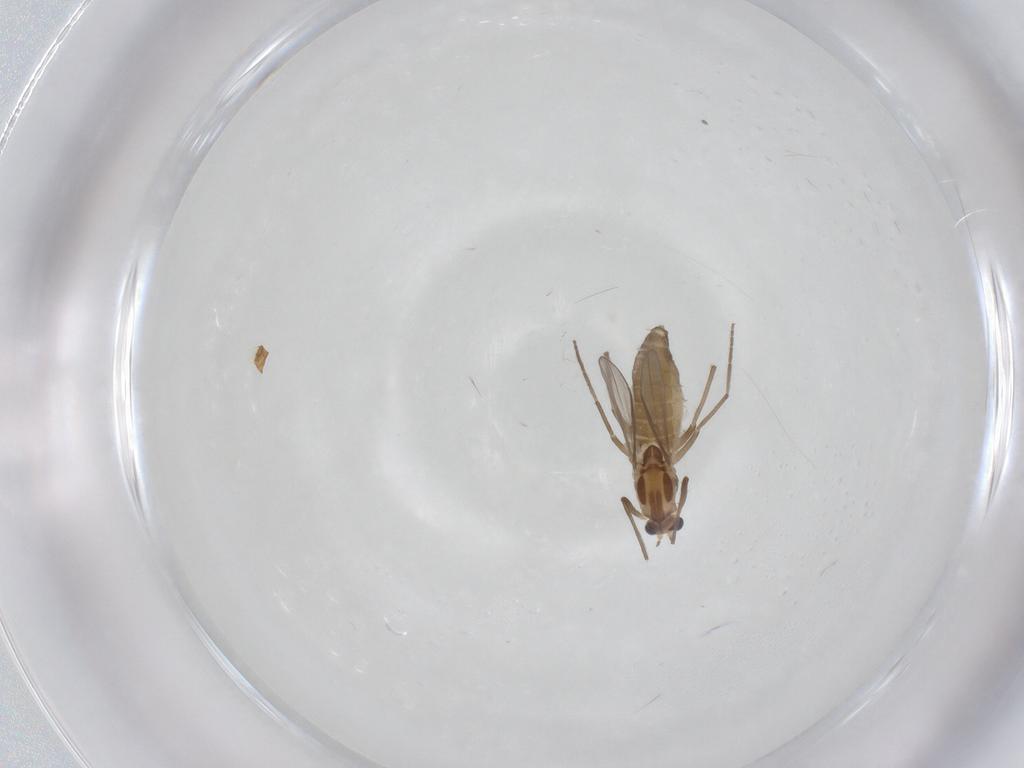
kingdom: Animalia
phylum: Arthropoda
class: Insecta
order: Diptera
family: Chironomidae
